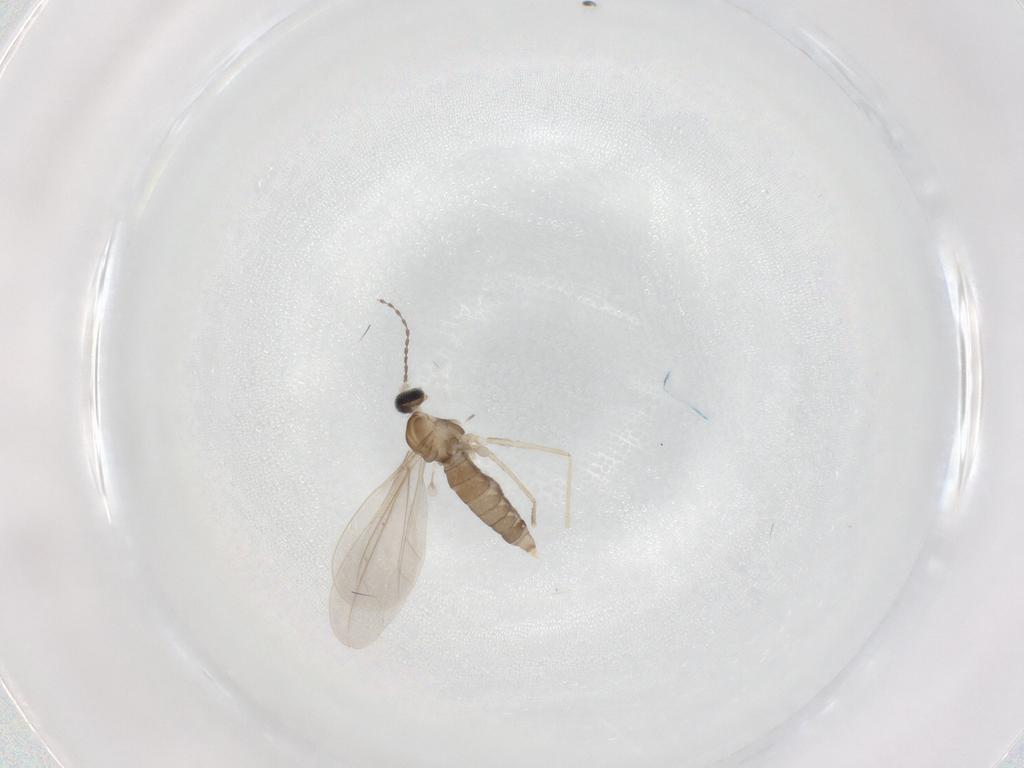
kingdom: Animalia
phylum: Arthropoda
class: Insecta
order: Diptera
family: Cecidomyiidae
